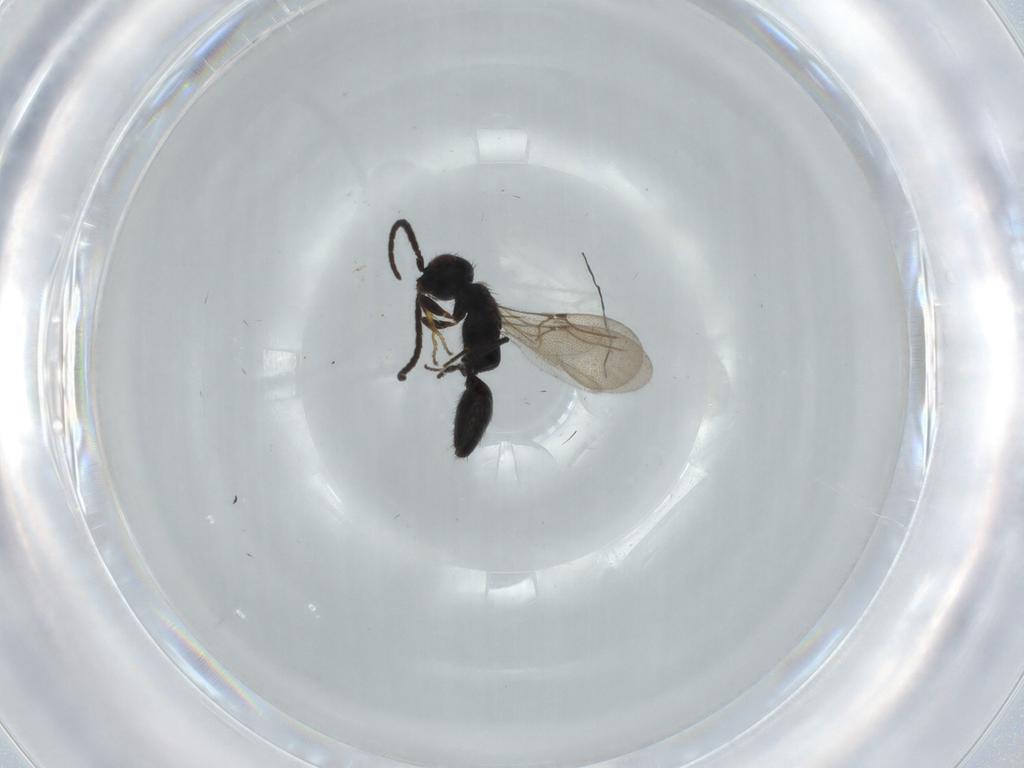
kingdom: Animalia
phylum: Arthropoda
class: Insecta
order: Hymenoptera
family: Bethylidae
